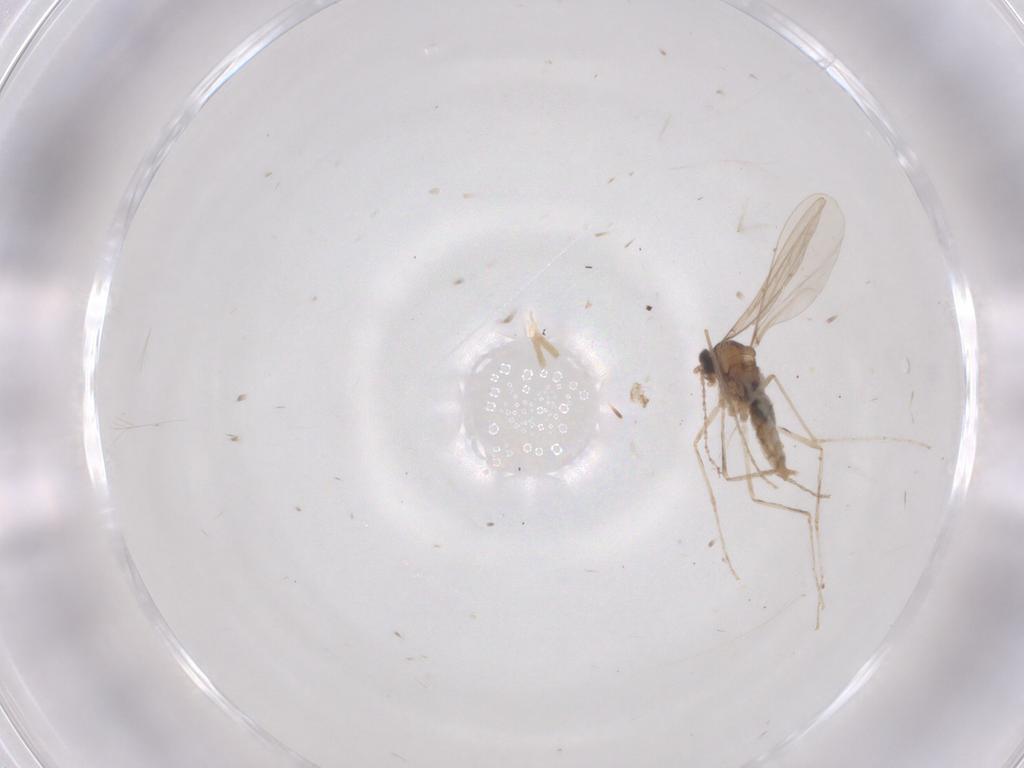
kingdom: Animalia
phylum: Arthropoda
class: Insecta
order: Diptera
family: Cecidomyiidae
